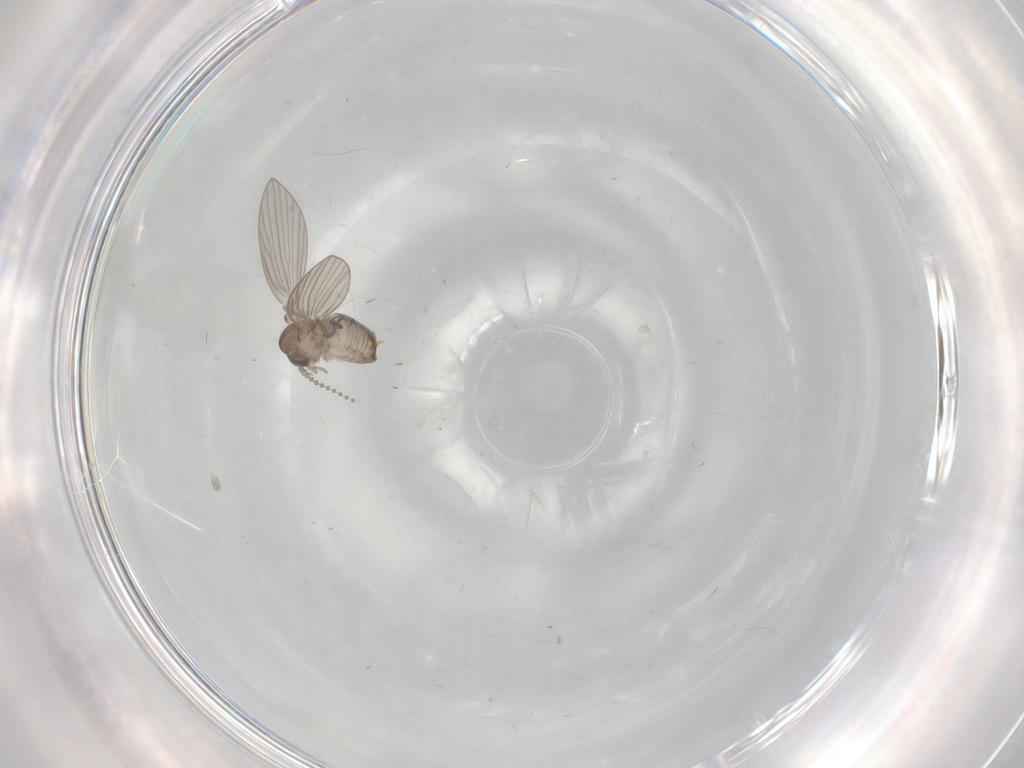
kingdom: Animalia
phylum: Arthropoda
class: Insecta
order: Diptera
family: Psychodidae
